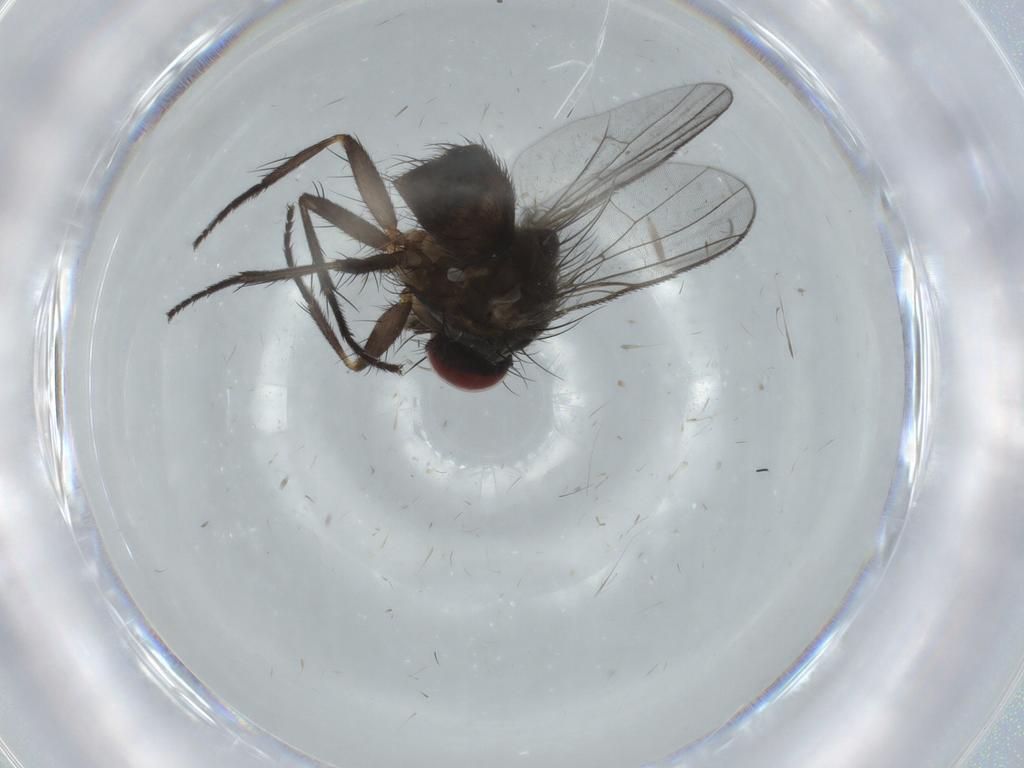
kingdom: Animalia
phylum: Arthropoda
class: Insecta
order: Diptera
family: Muscidae
